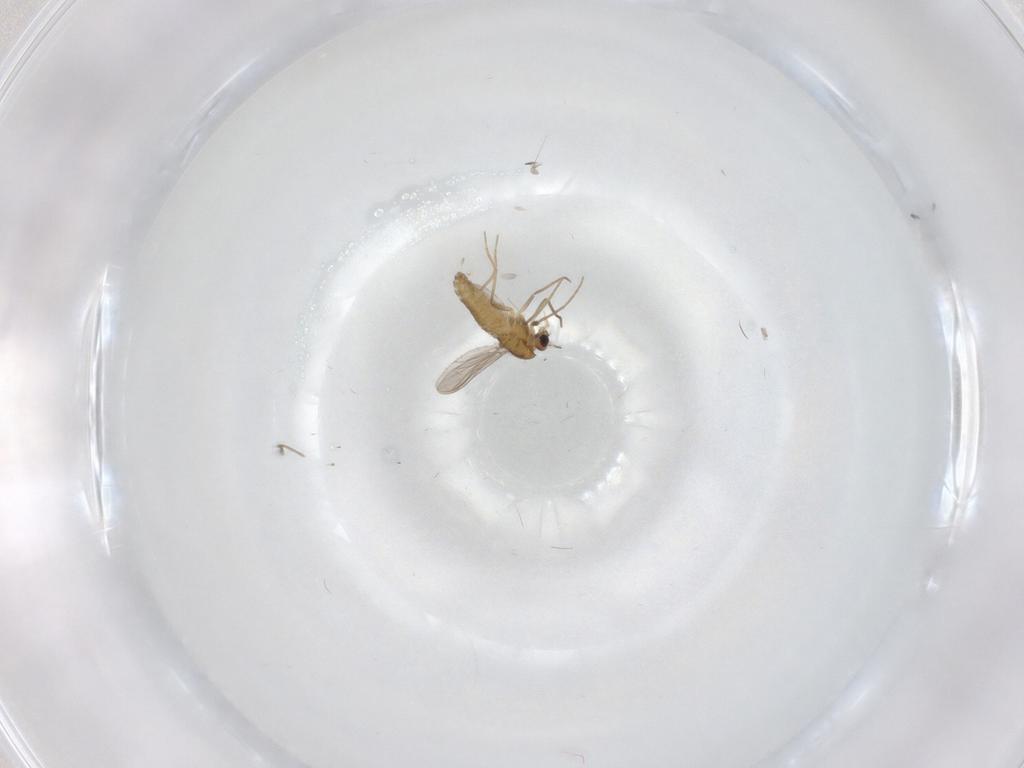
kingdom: Animalia
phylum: Arthropoda
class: Insecta
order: Diptera
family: Chironomidae
